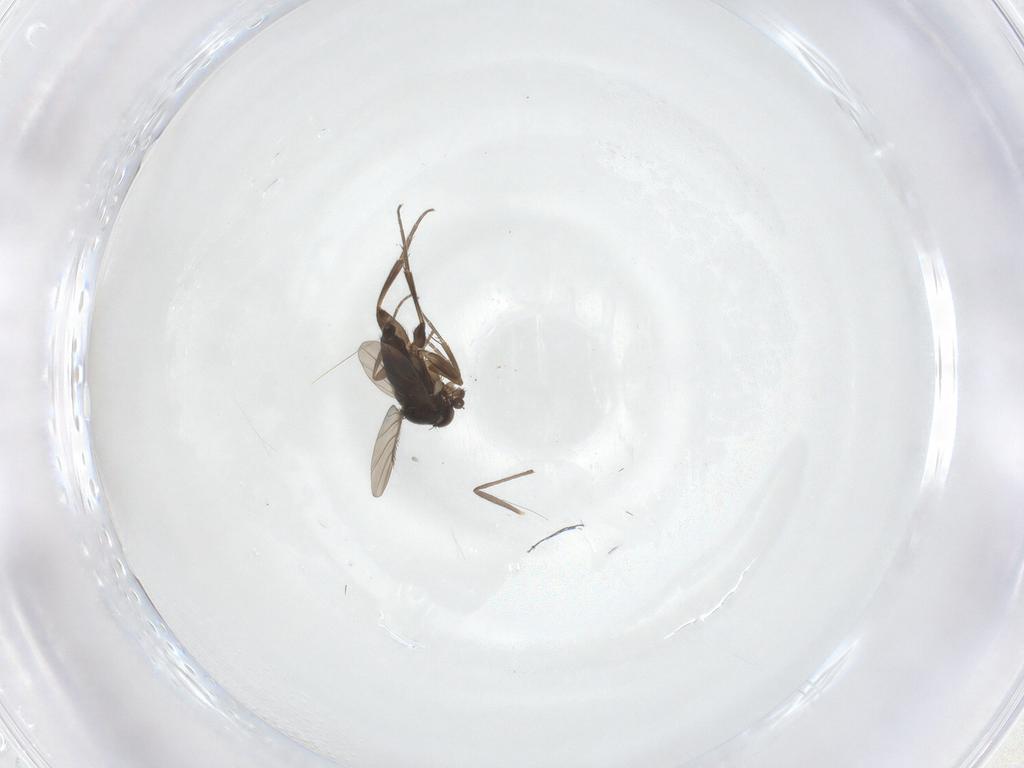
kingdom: Animalia
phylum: Arthropoda
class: Insecta
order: Diptera
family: Phoridae
